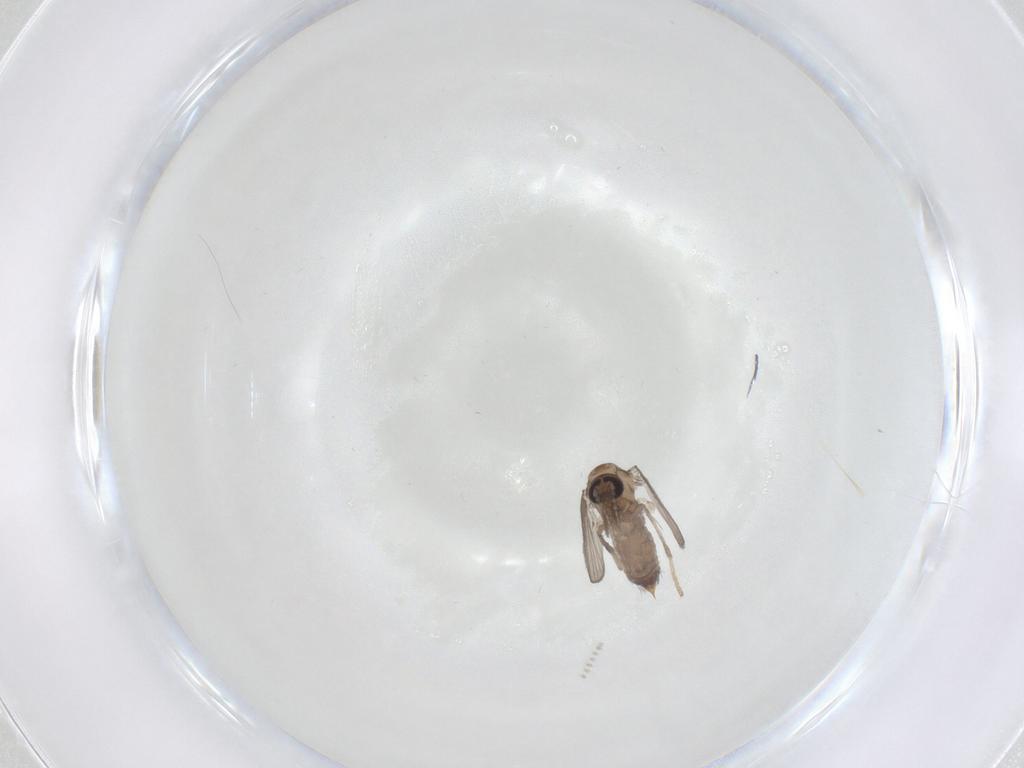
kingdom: Animalia
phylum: Arthropoda
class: Insecta
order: Diptera
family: Psychodidae
